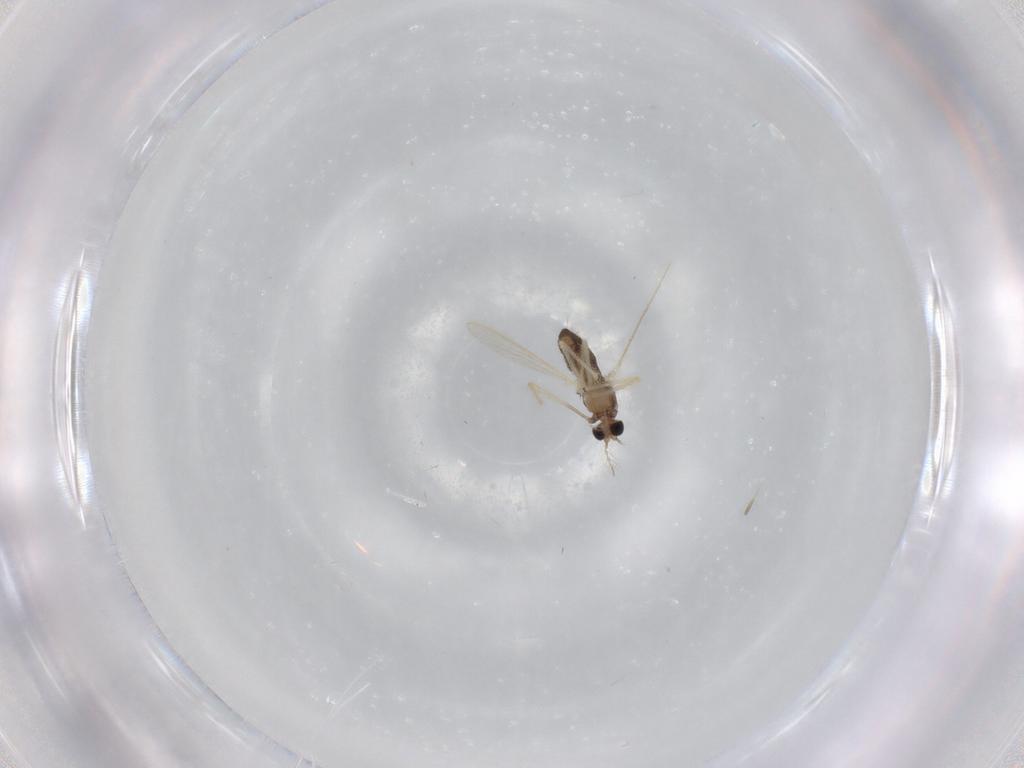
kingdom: Animalia
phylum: Arthropoda
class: Insecta
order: Diptera
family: Chironomidae
